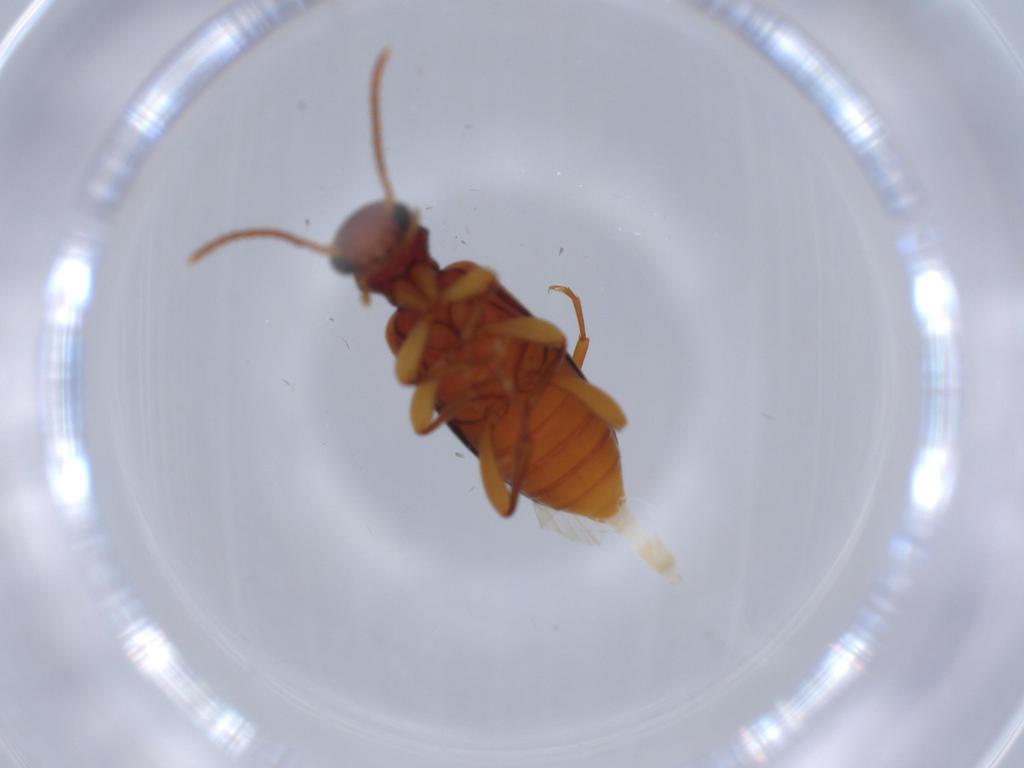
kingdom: Animalia
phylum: Arthropoda
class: Insecta
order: Coleoptera
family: Anthicidae
